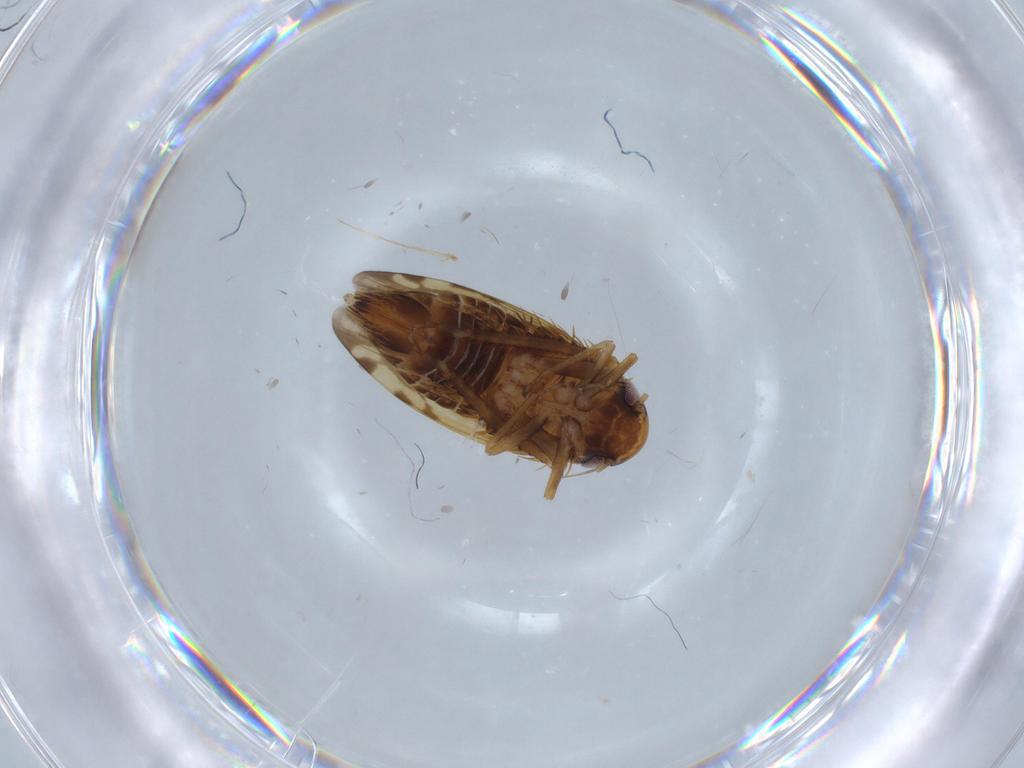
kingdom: Animalia
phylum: Arthropoda
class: Insecta
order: Hemiptera
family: Cicadellidae
